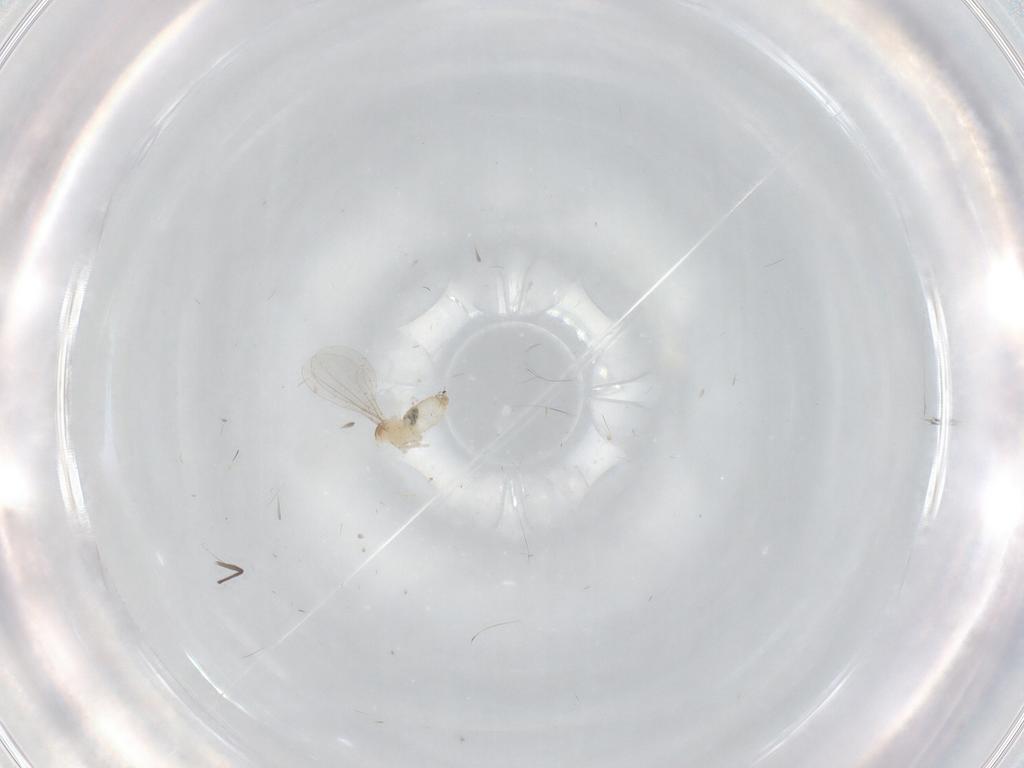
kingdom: Animalia
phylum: Arthropoda
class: Insecta
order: Diptera
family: Cecidomyiidae
